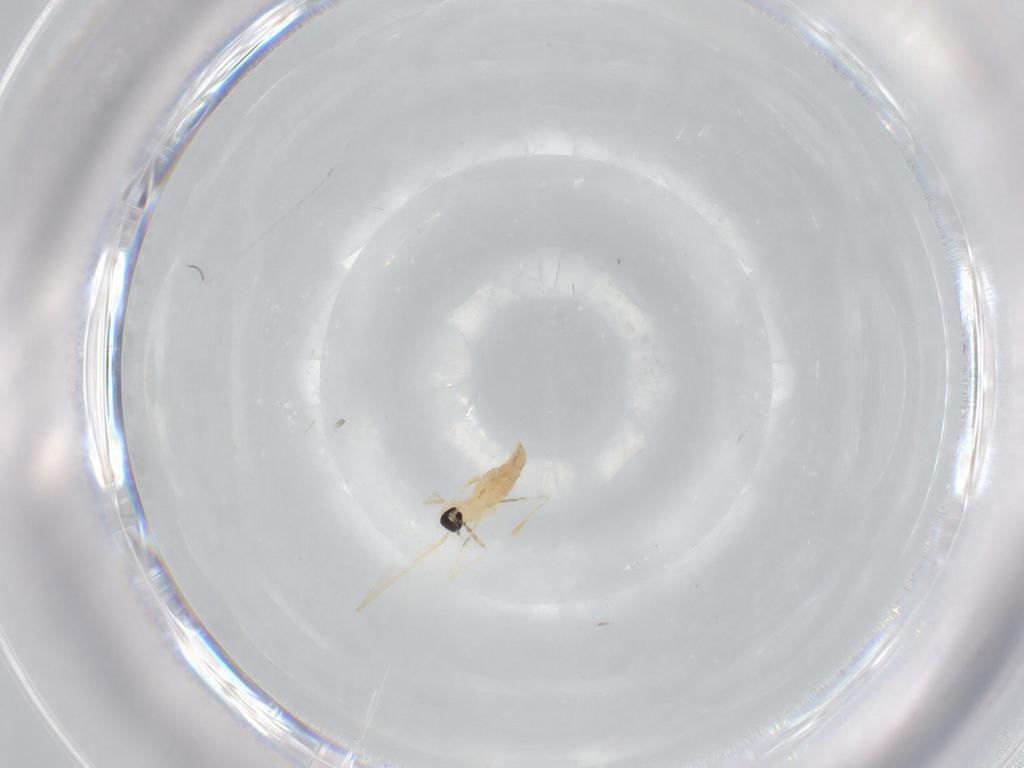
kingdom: Animalia
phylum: Arthropoda
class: Insecta
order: Diptera
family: Cecidomyiidae
